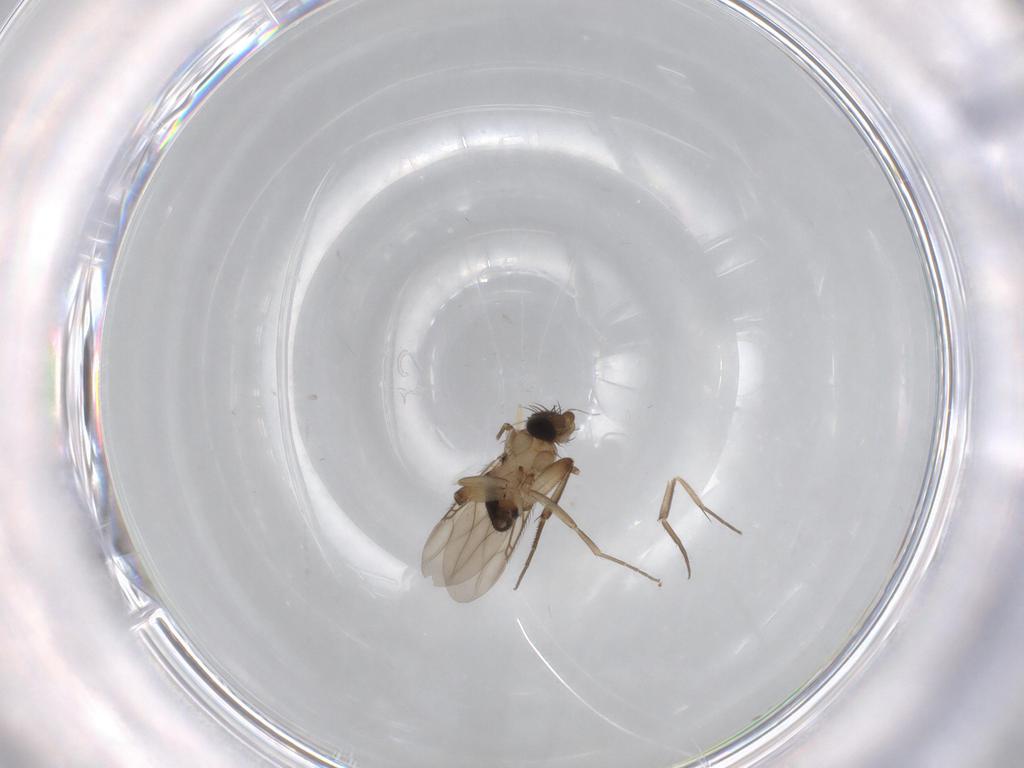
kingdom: Animalia
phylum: Arthropoda
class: Insecta
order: Diptera
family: Phoridae
